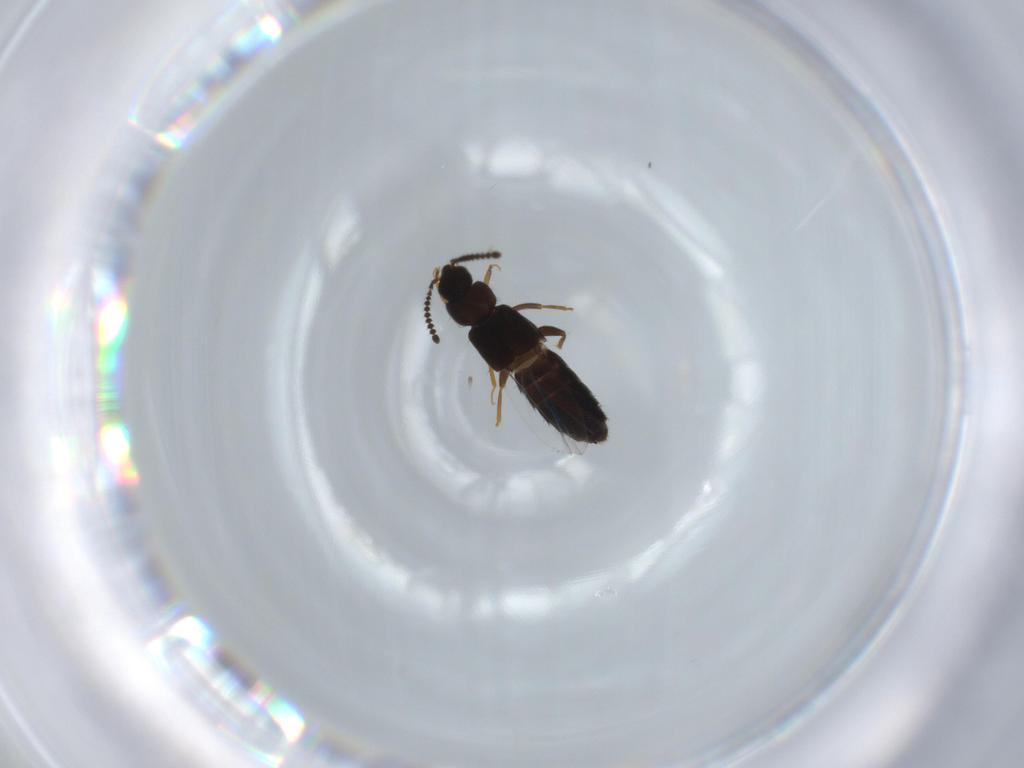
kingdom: Animalia
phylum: Arthropoda
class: Insecta
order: Coleoptera
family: Staphylinidae
